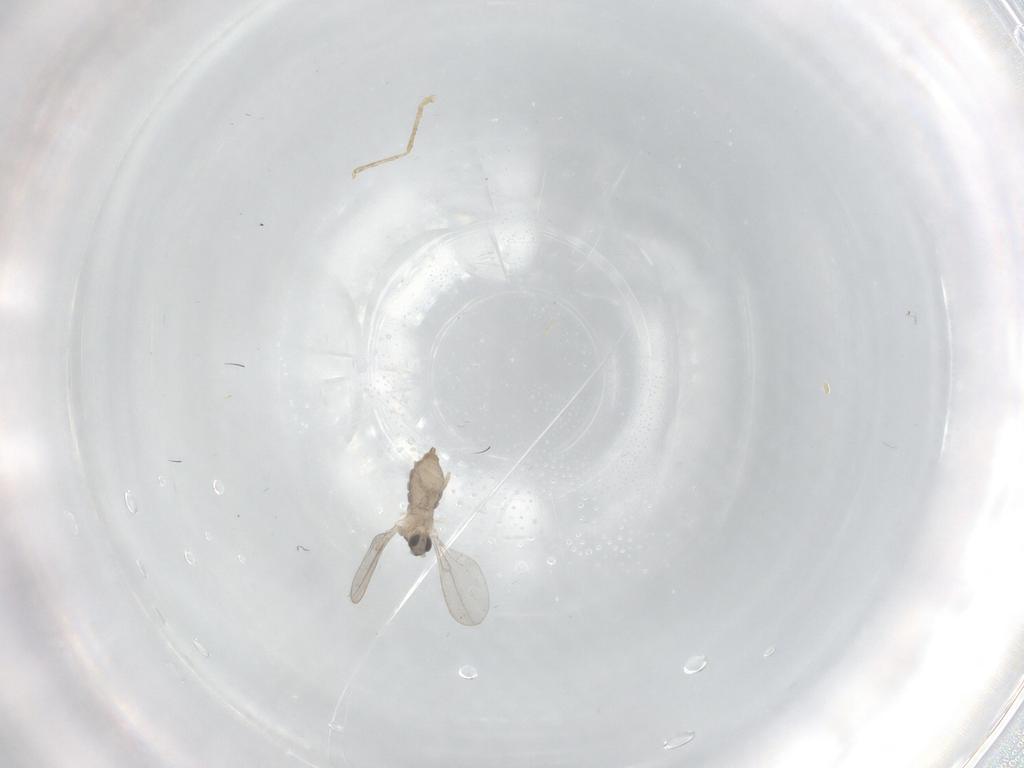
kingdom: Animalia
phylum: Arthropoda
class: Insecta
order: Diptera
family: Cecidomyiidae
